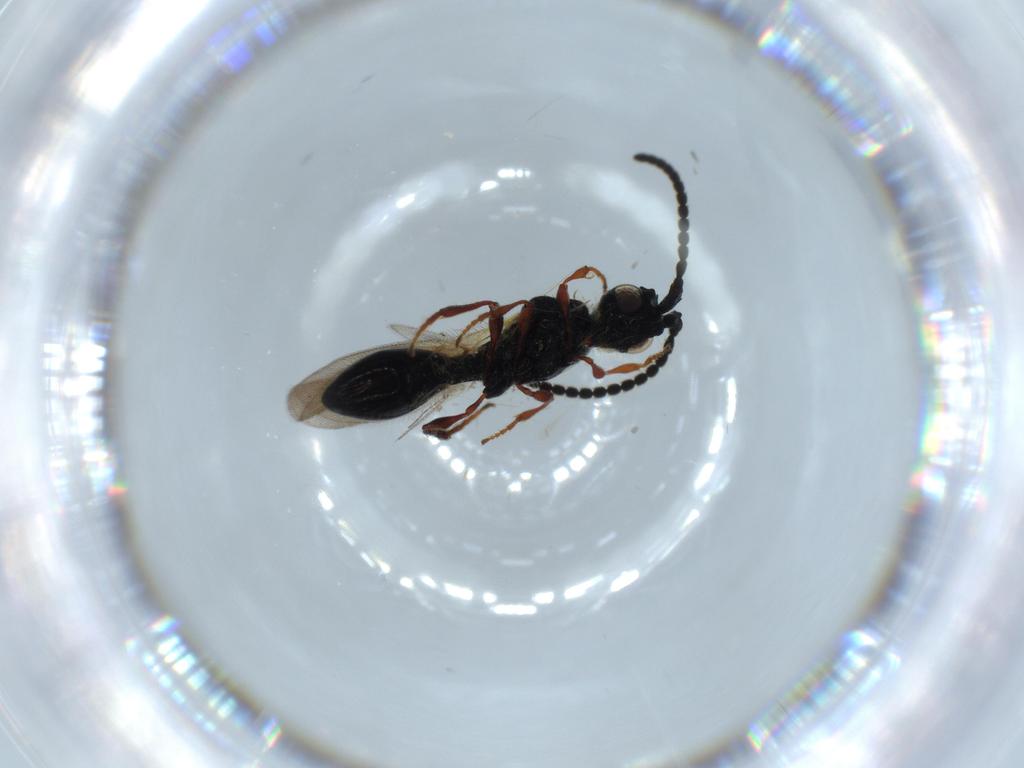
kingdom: Animalia
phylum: Arthropoda
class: Insecta
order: Hymenoptera
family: Diapriidae
